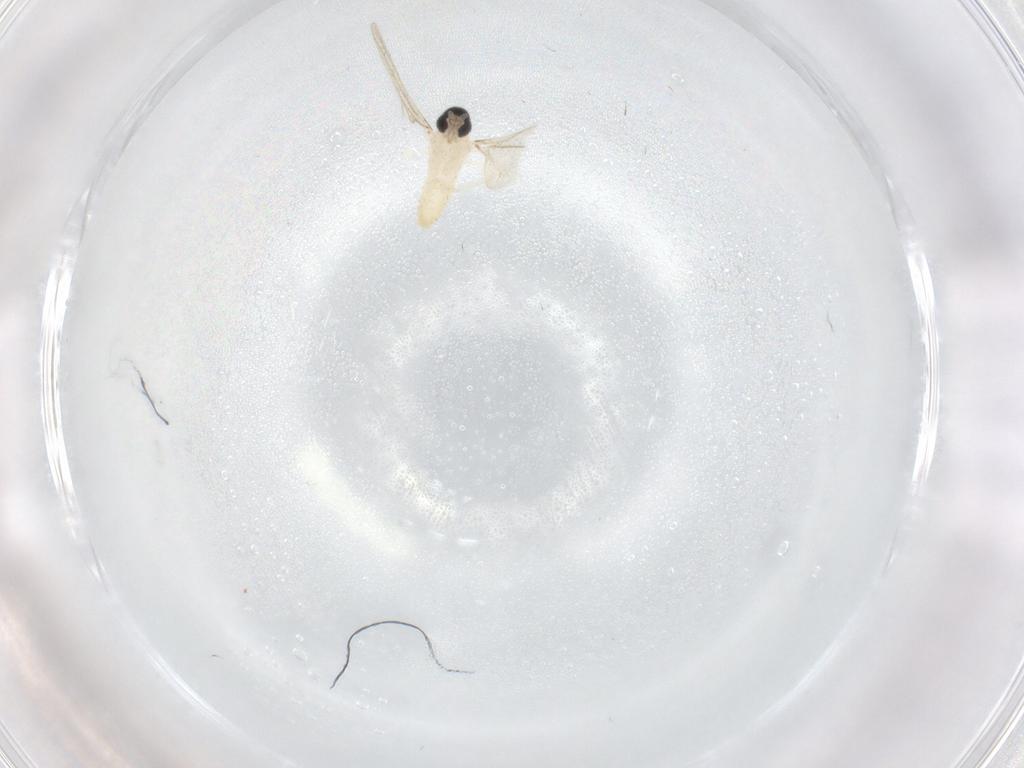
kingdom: Animalia
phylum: Arthropoda
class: Insecta
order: Diptera
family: Cecidomyiidae
